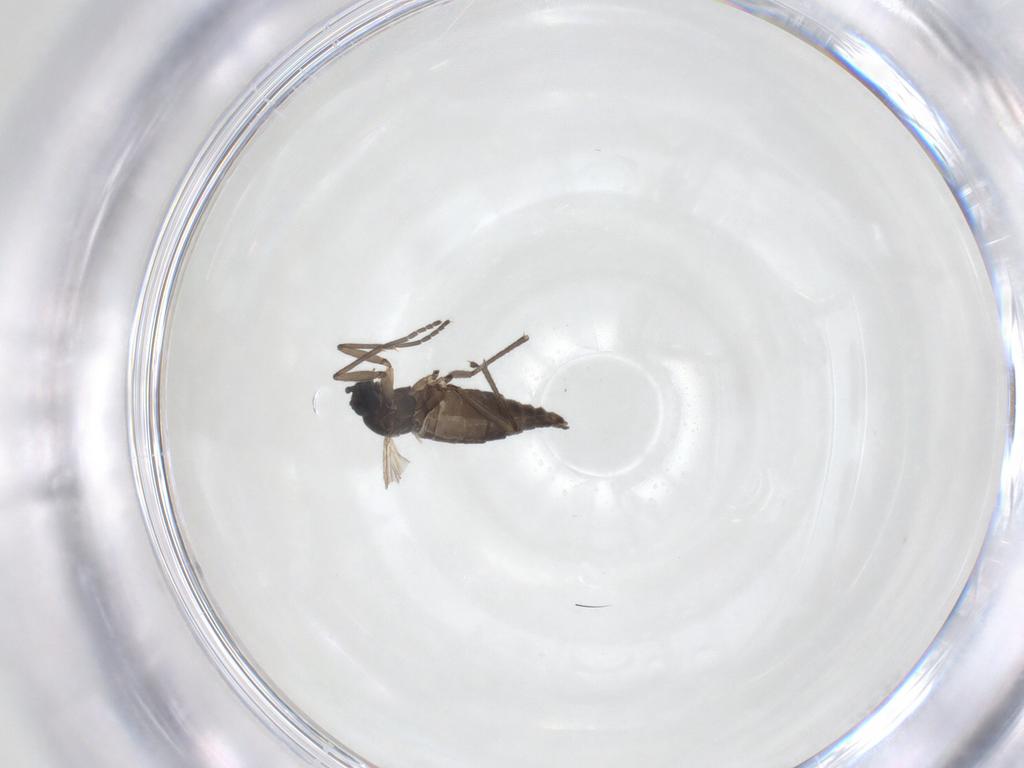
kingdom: Animalia
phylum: Arthropoda
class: Insecta
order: Diptera
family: Sciaridae
